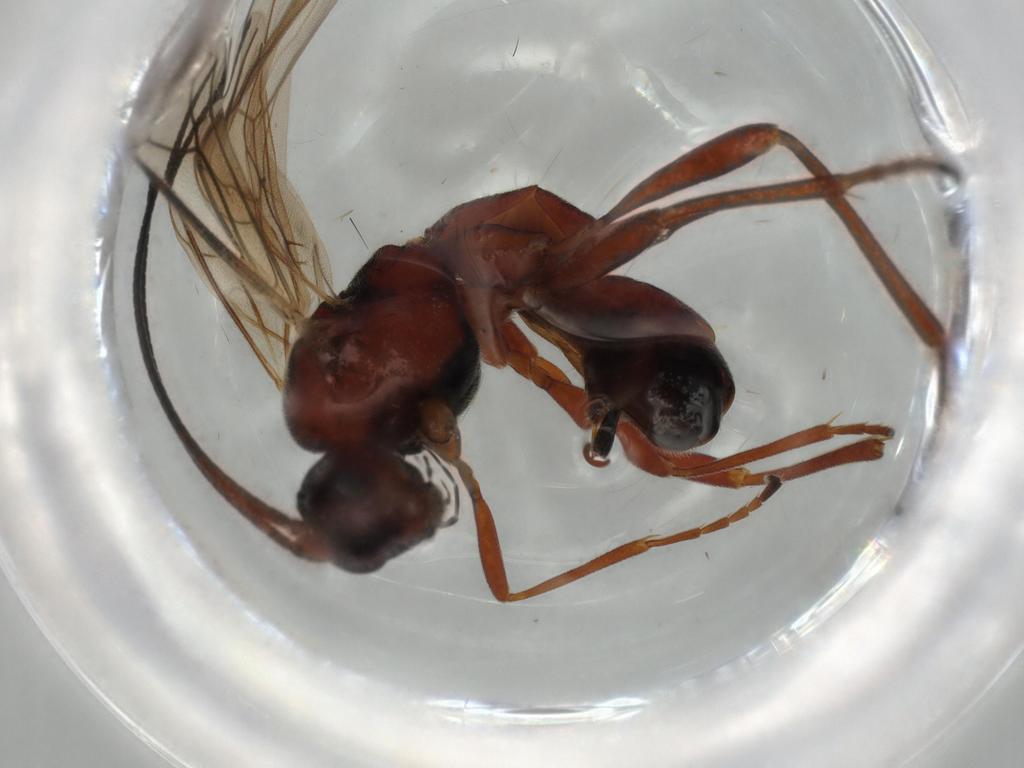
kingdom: Animalia
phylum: Arthropoda
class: Insecta
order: Hymenoptera
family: Braconidae
